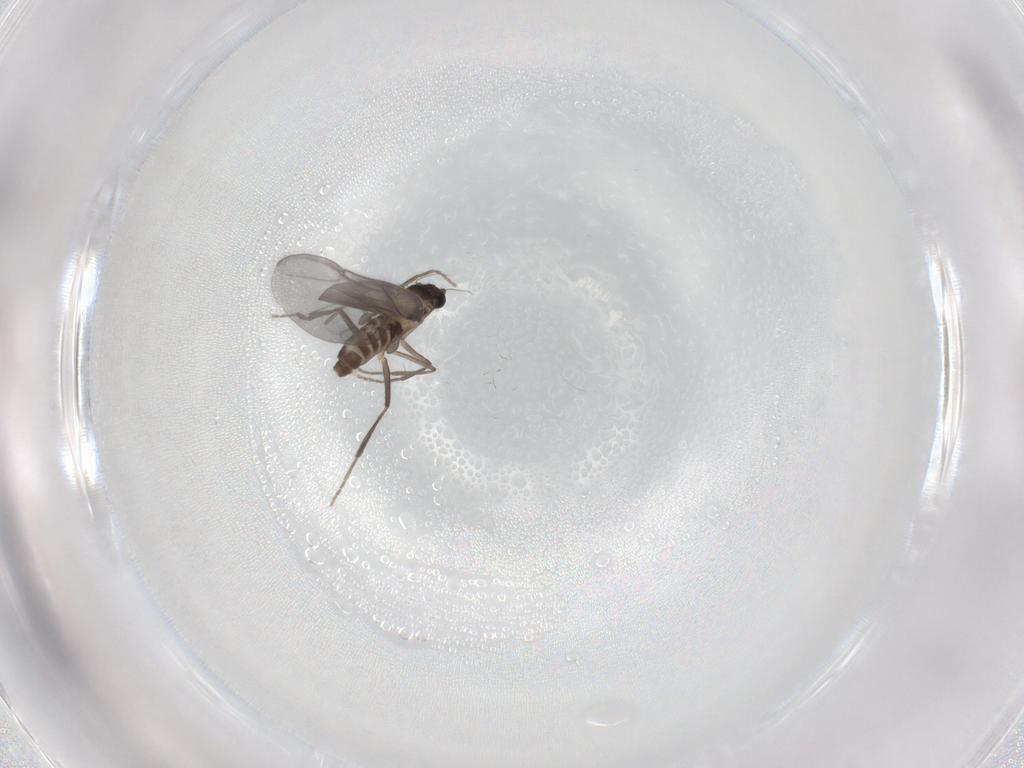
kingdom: Animalia
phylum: Arthropoda
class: Insecta
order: Diptera
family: Phoridae
